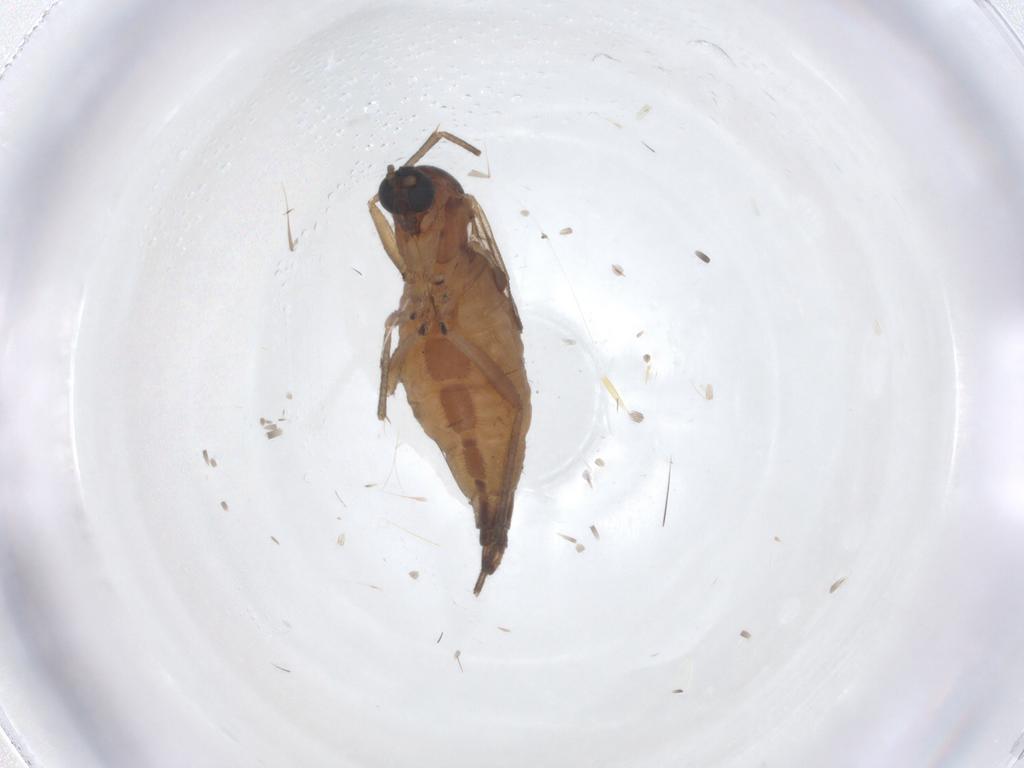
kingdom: Animalia
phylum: Arthropoda
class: Insecta
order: Diptera
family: Sciaridae
